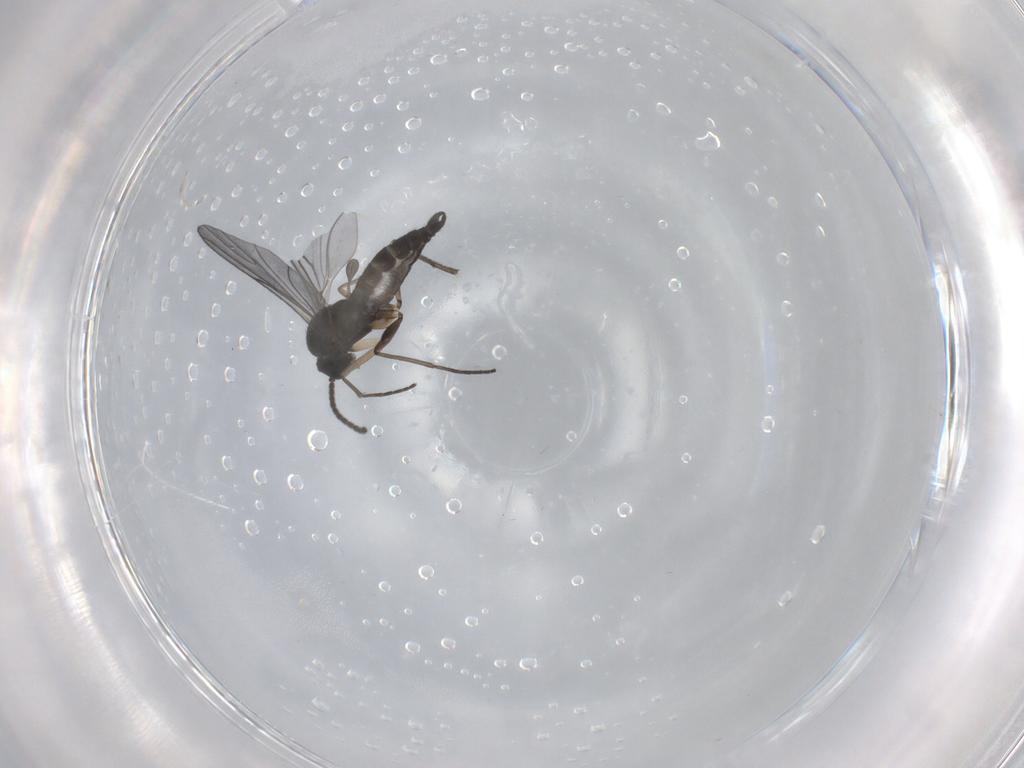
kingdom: Animalia
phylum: Arthropoda
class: Insecta
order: Diptera
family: Sciaridae
